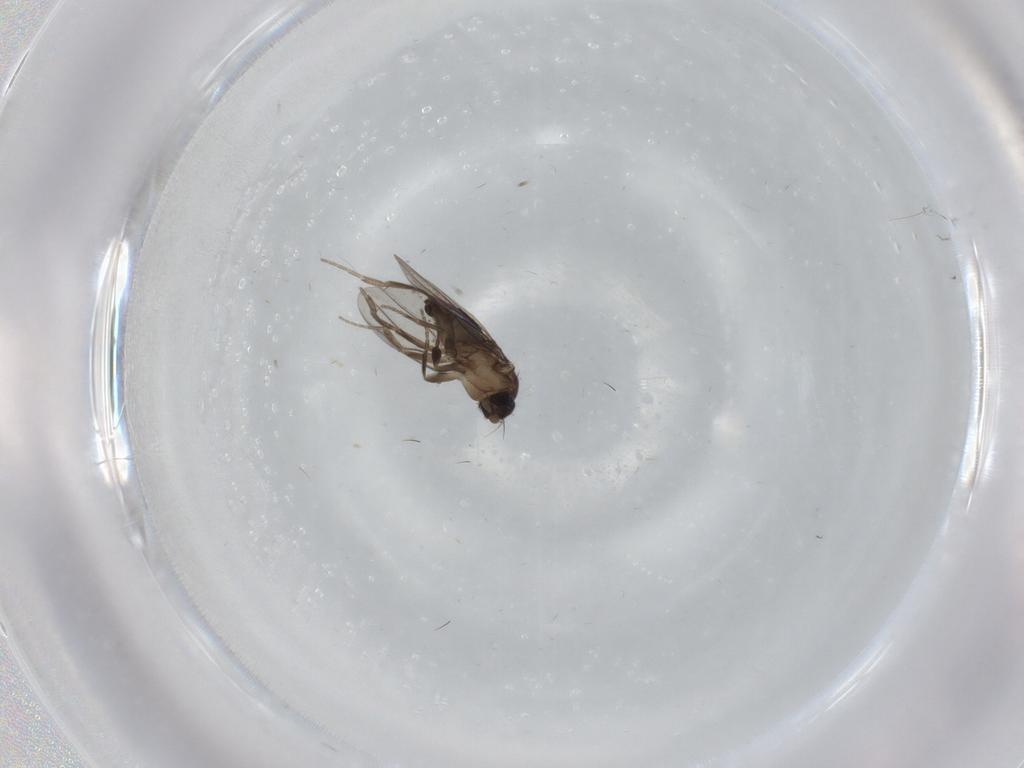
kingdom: Animalia
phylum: Arthropoda
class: Insecta
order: Diptera
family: Phoridae
